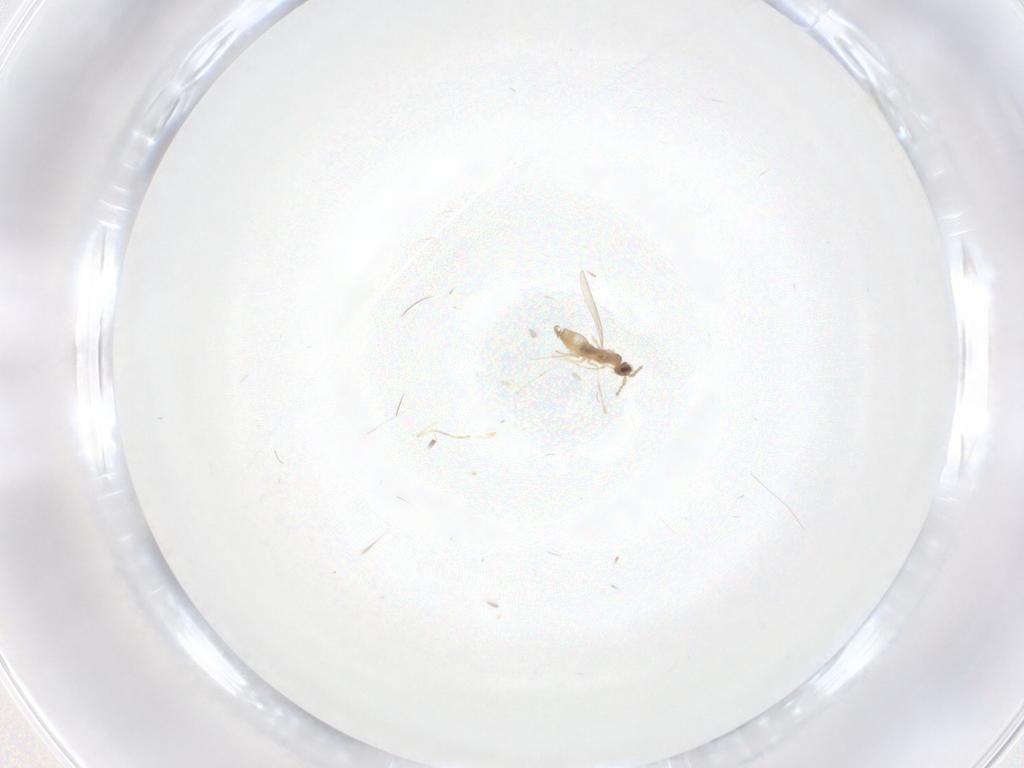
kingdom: Animalia
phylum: Arthropoda
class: Insecta
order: Diptera
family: Cecidomyiidae
